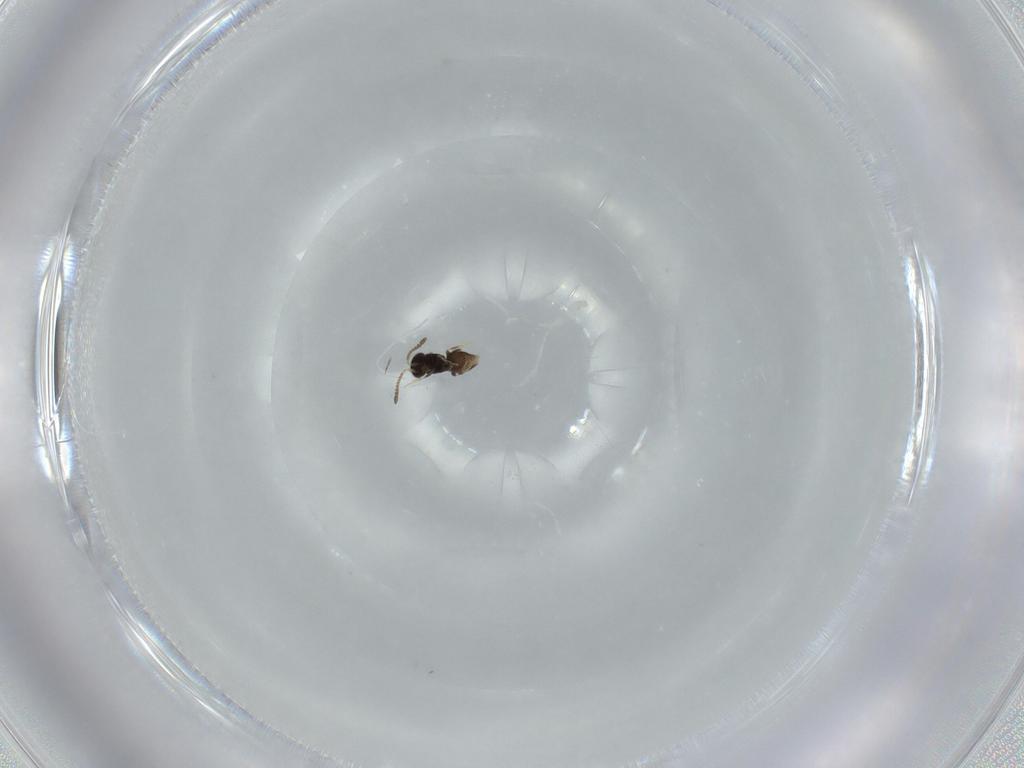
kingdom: Animalia
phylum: Arthropoda
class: Insecta
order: Hymenoptera
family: Ceraphronidae
